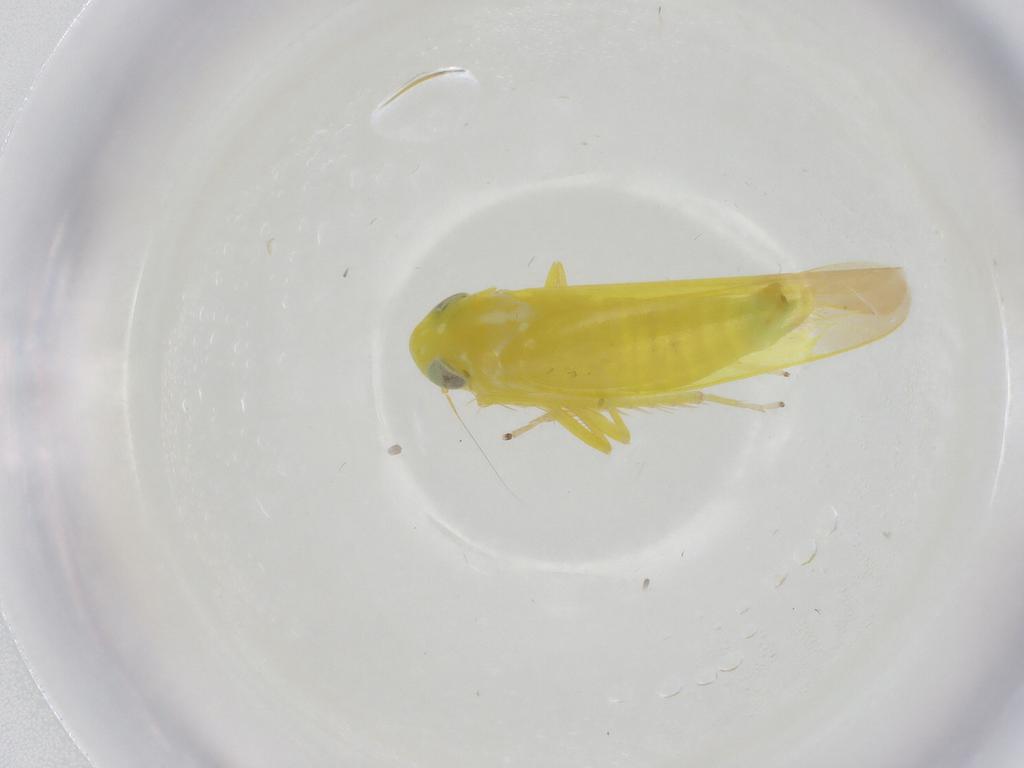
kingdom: Animalia
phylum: Arthropoda
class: Insecta
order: Hemiptera
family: Cicadellidae
